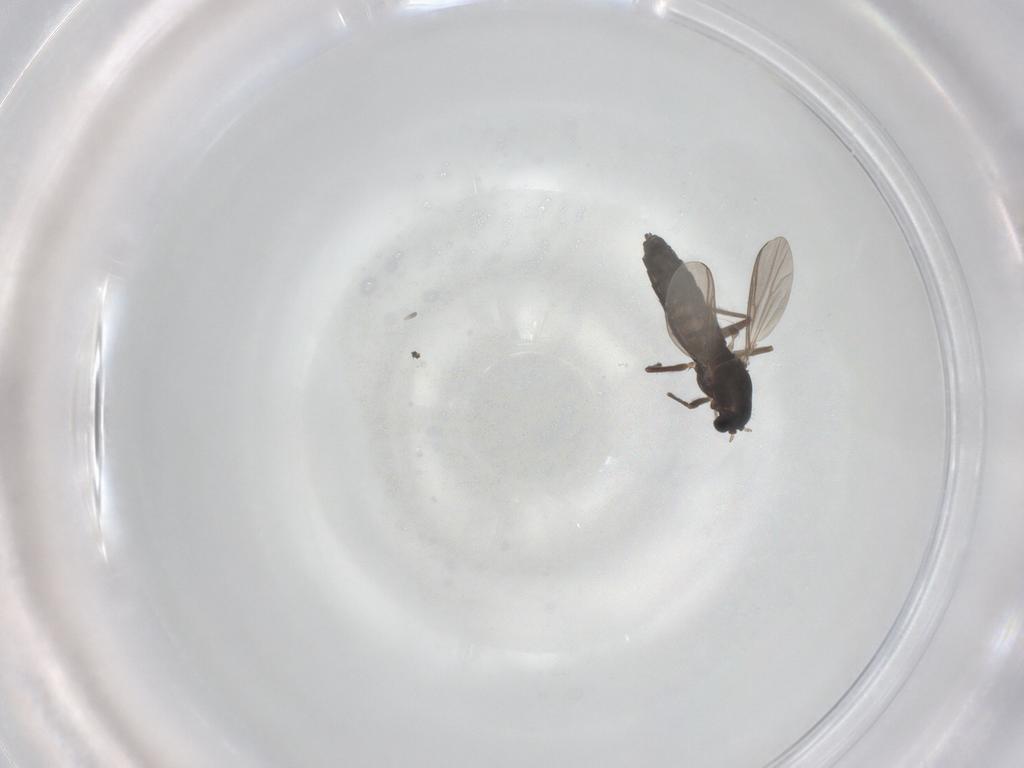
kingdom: Animalia
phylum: Arthropoda
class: Insecta
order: Diptera
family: Chironomidae
